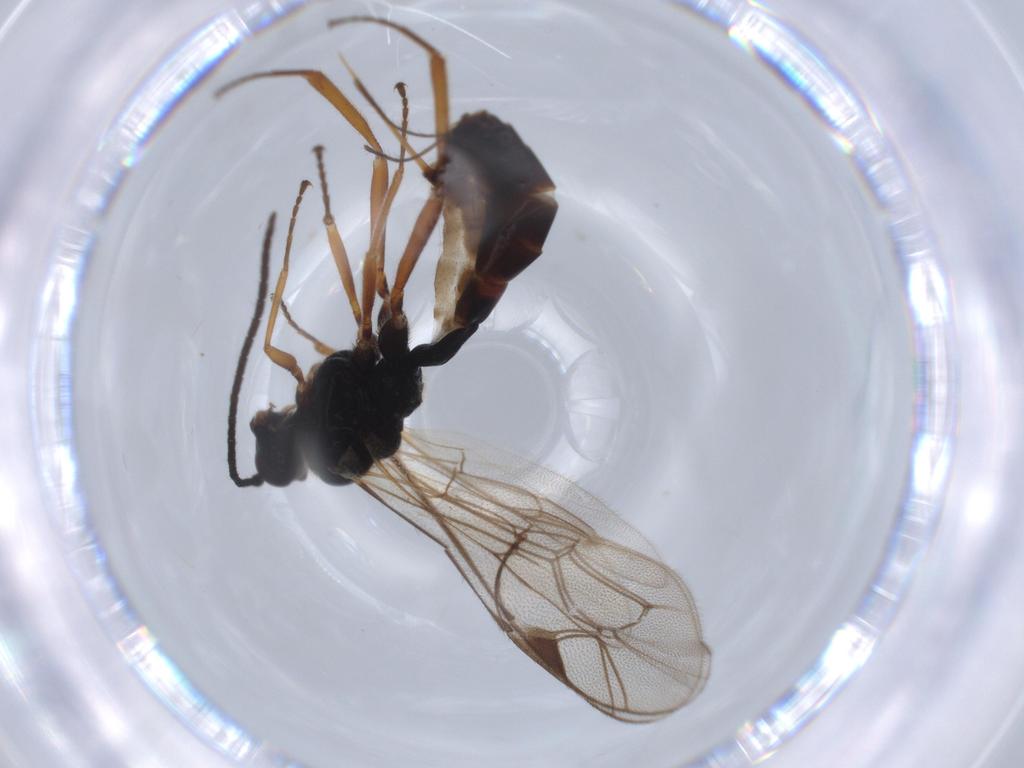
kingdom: Animalia
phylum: Arthropoda
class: Insecta
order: Hymenoptera
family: Ichneumonidae
